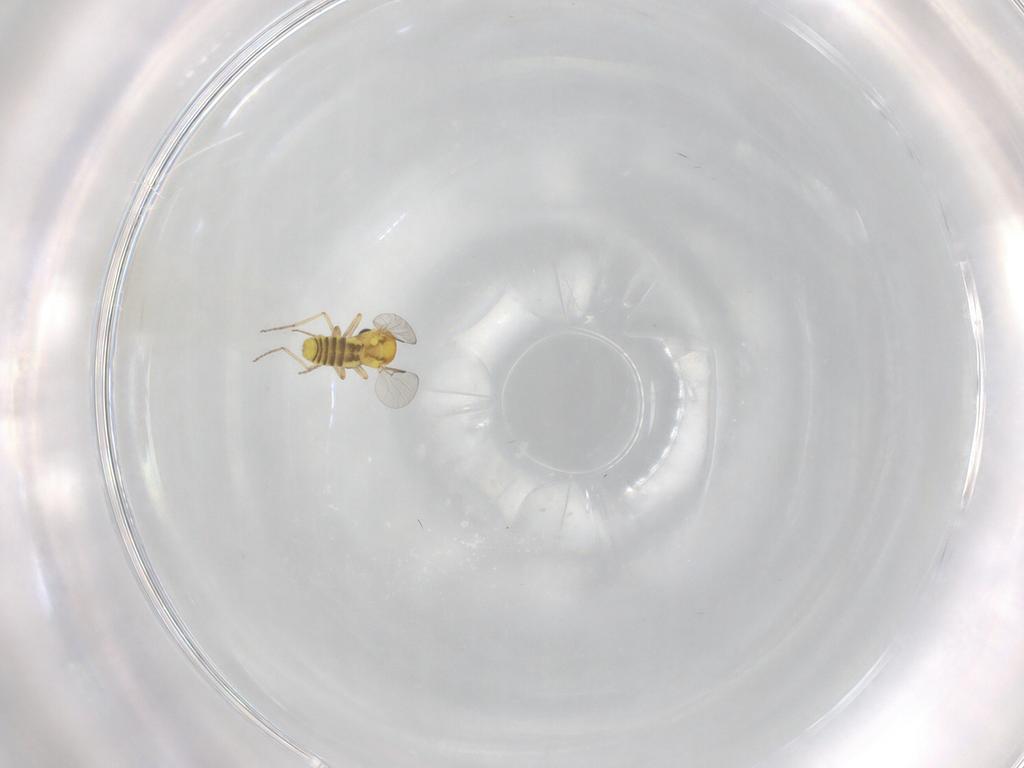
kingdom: Animalia
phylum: Arthropoda
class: Insecta
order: Diptera
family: Ceratopogonidae
